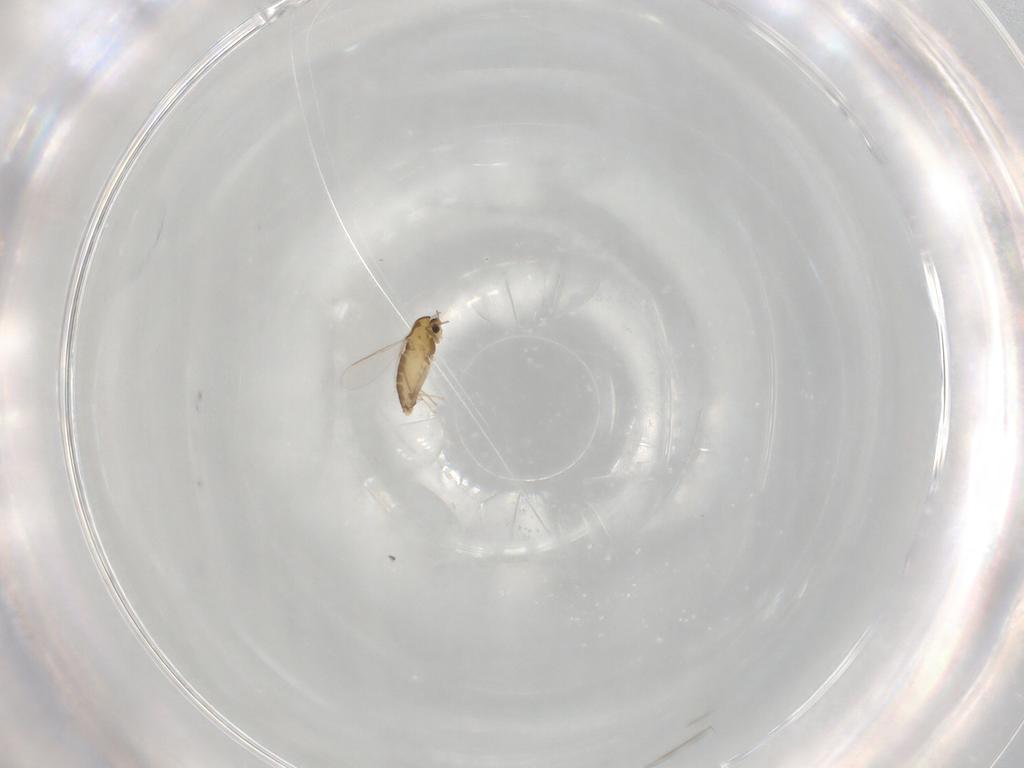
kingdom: Animalia
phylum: Arthropoda
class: Insecta
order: Diptera
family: Chironomidae
